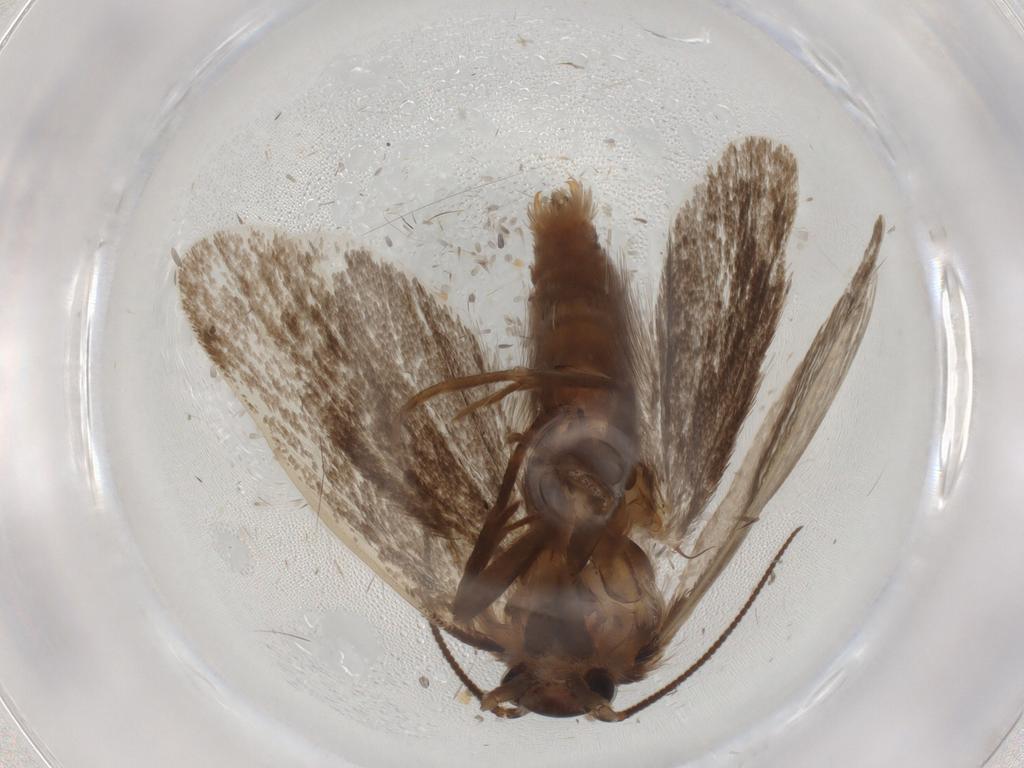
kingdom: Animalia
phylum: Arthropoda
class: Insecta
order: Lepidoptera
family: Tineidae
